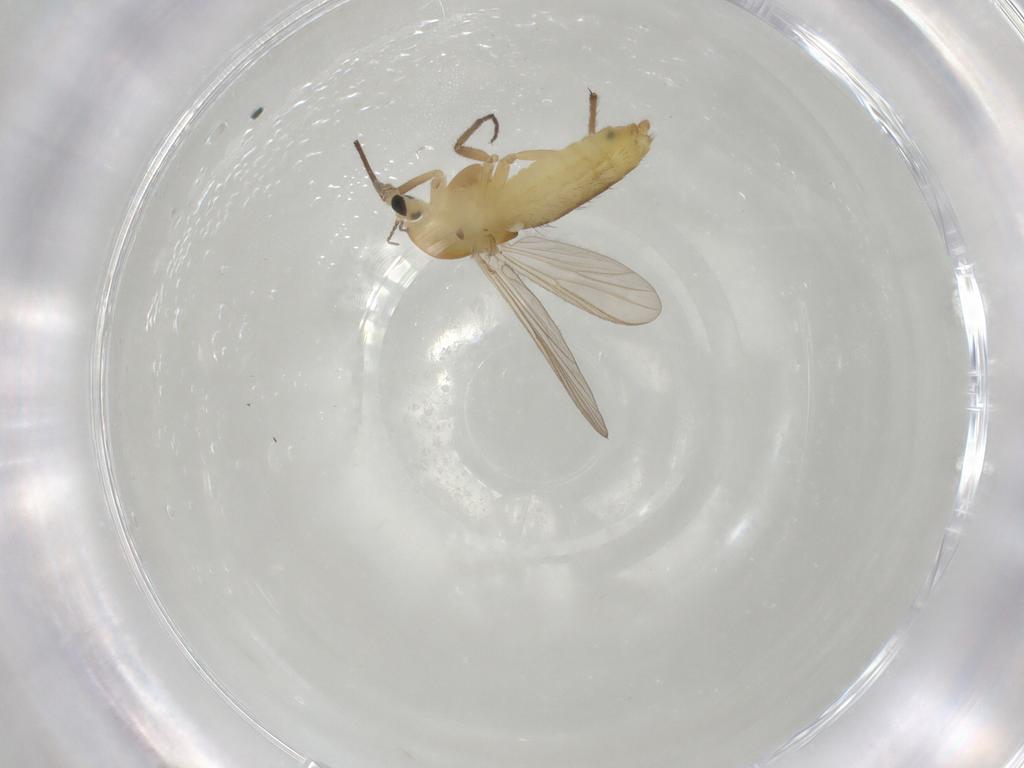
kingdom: Animalia
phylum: Arthropoda
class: Insecta
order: Diptera
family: Chironomidae
